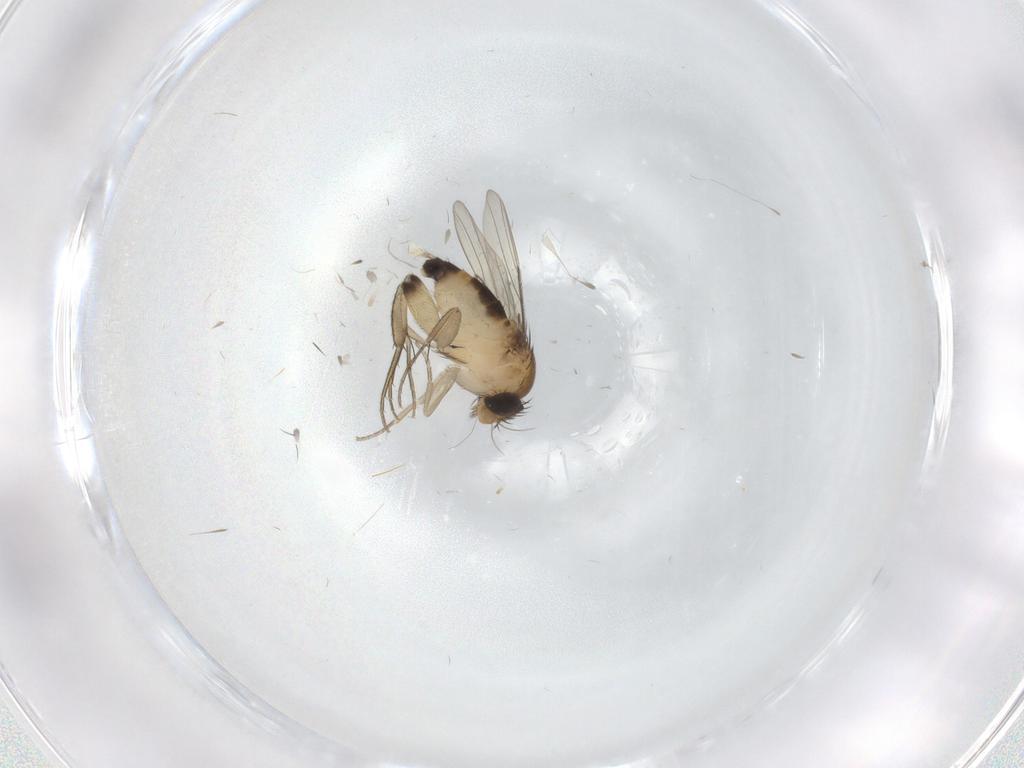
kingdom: Animalia
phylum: Arthropoda
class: Insecta
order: Diptera
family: Phoridae
